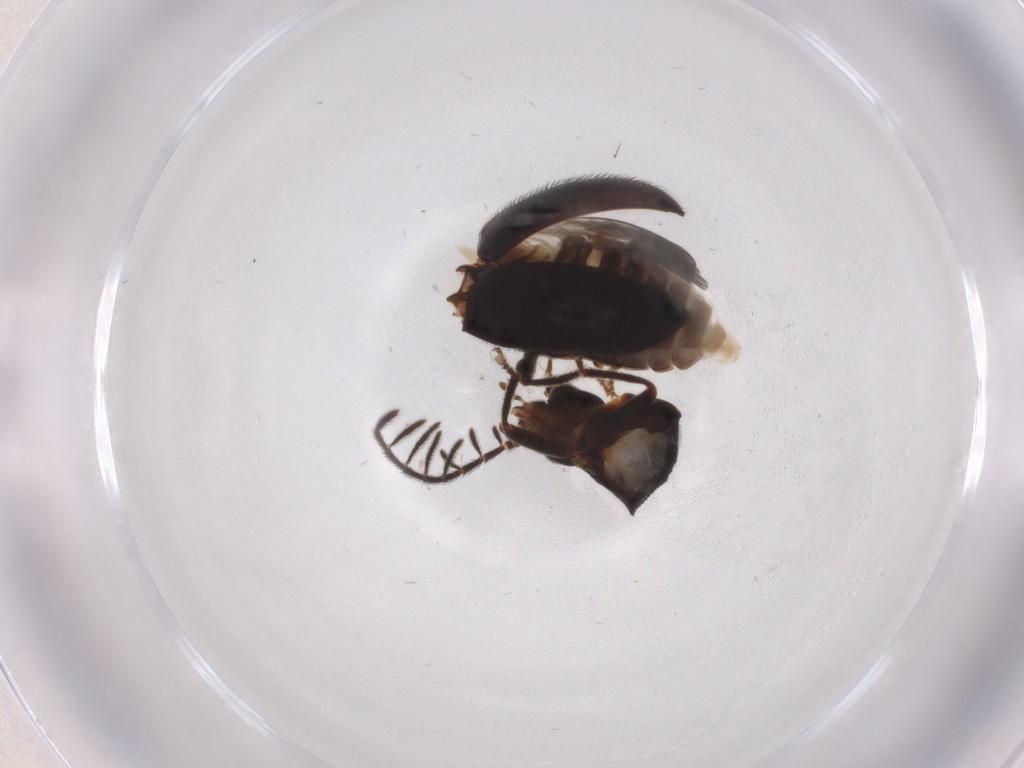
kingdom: Animalia
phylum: Arthropoda
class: Insecta
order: Coleoptera
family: Ptilodactylidae
